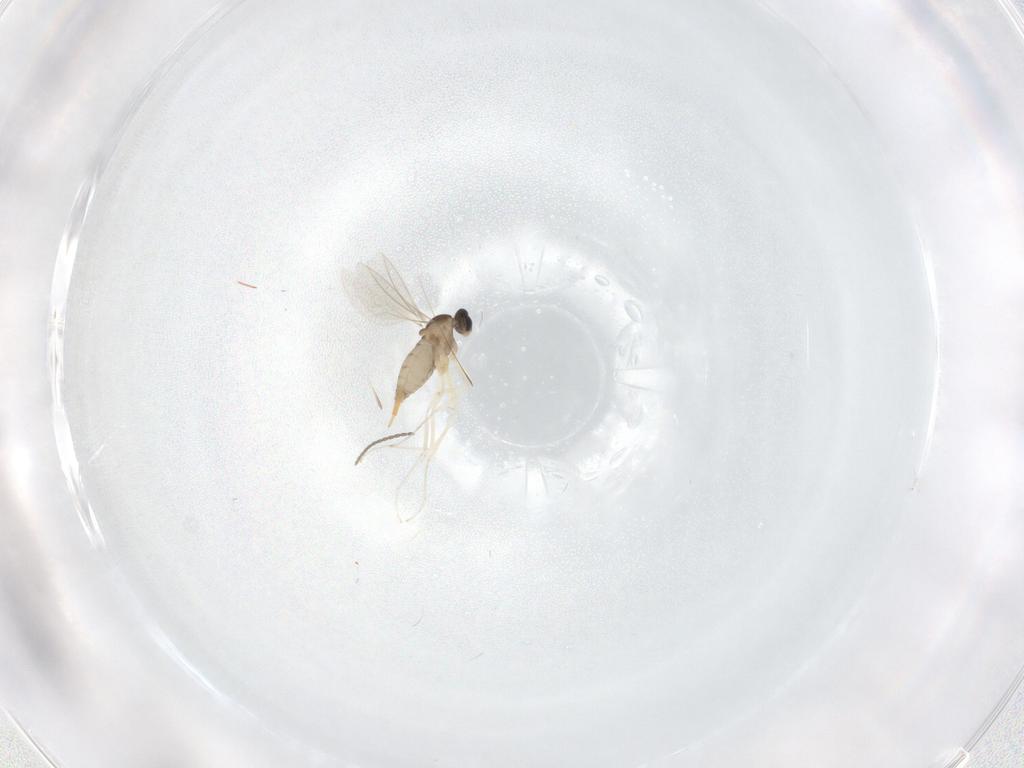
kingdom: Animalia
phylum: Arthropoda
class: Insecta
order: Diptera
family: Cecidomyiidae
